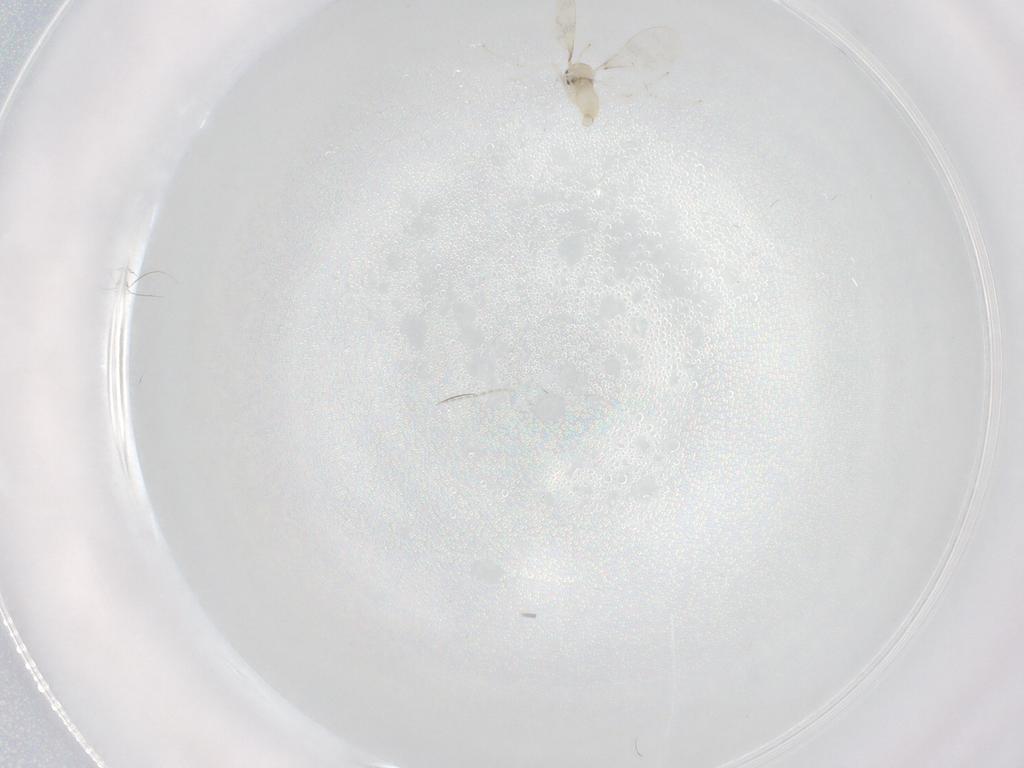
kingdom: Animalia
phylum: Arthropoda
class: Insecta
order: Diptera
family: Cecidomyiidae
